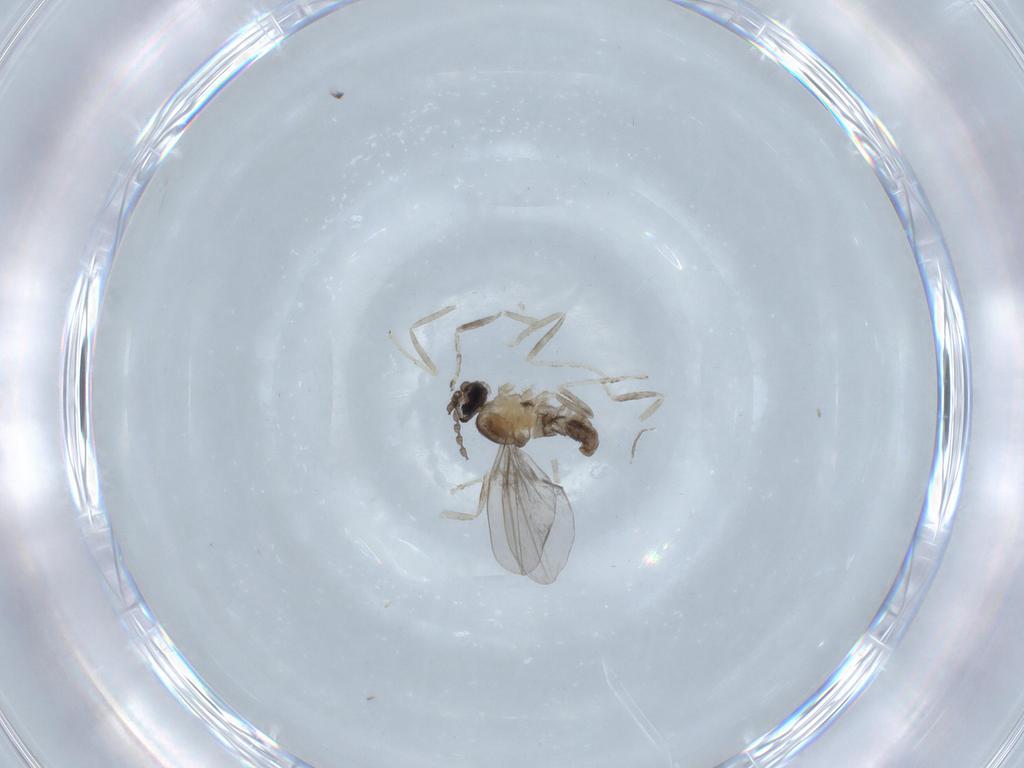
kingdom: Animalia
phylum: Arthropoda
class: Insecta
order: Diptera
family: Cecidomyiidae
